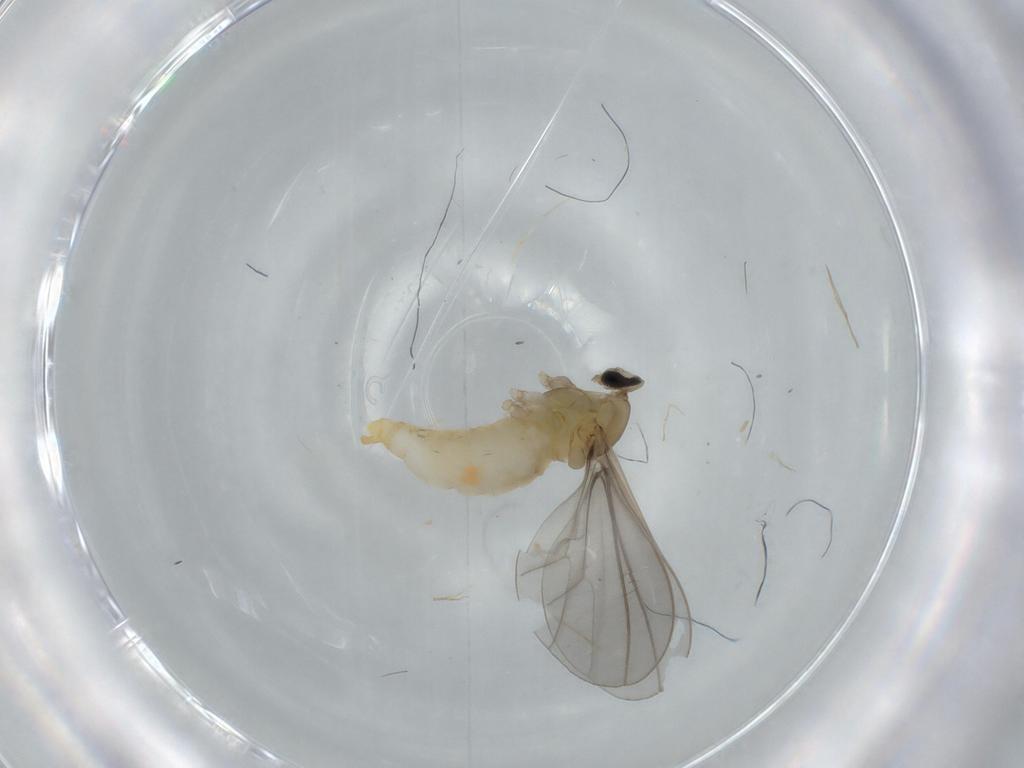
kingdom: Animalia
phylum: Arthropoda
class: Insecta
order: Diptera
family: Cecidomyiidae
